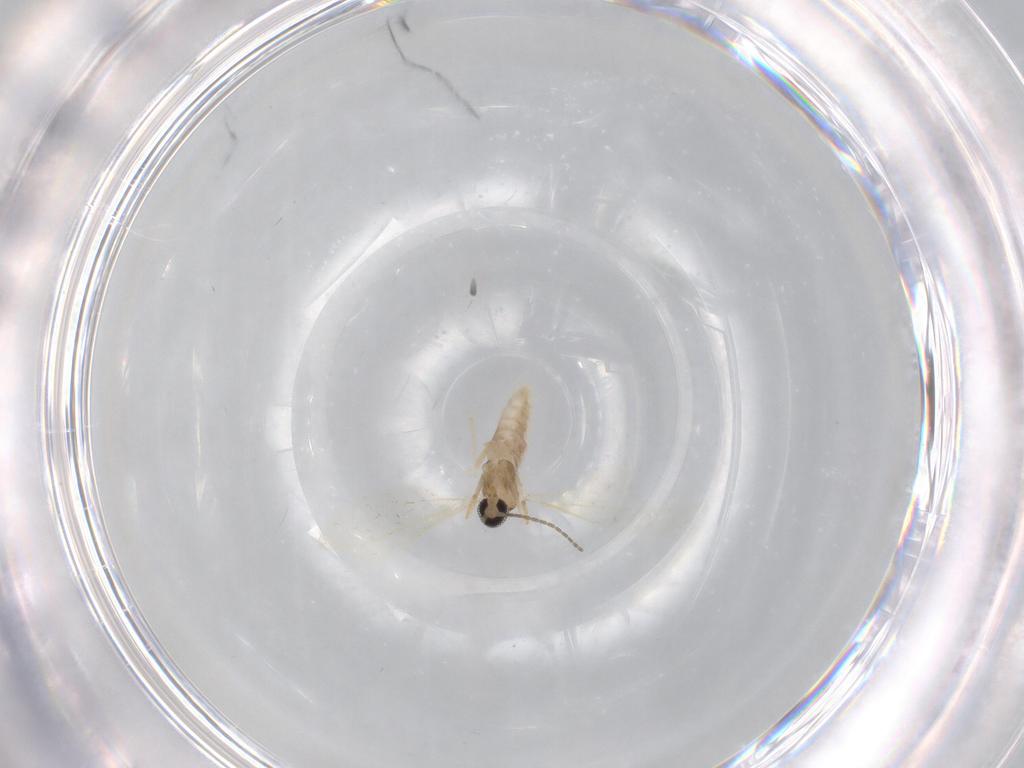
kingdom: Animalia
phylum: Arthropoda
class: Insecta
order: Diptera
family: Cecidomyiidae
